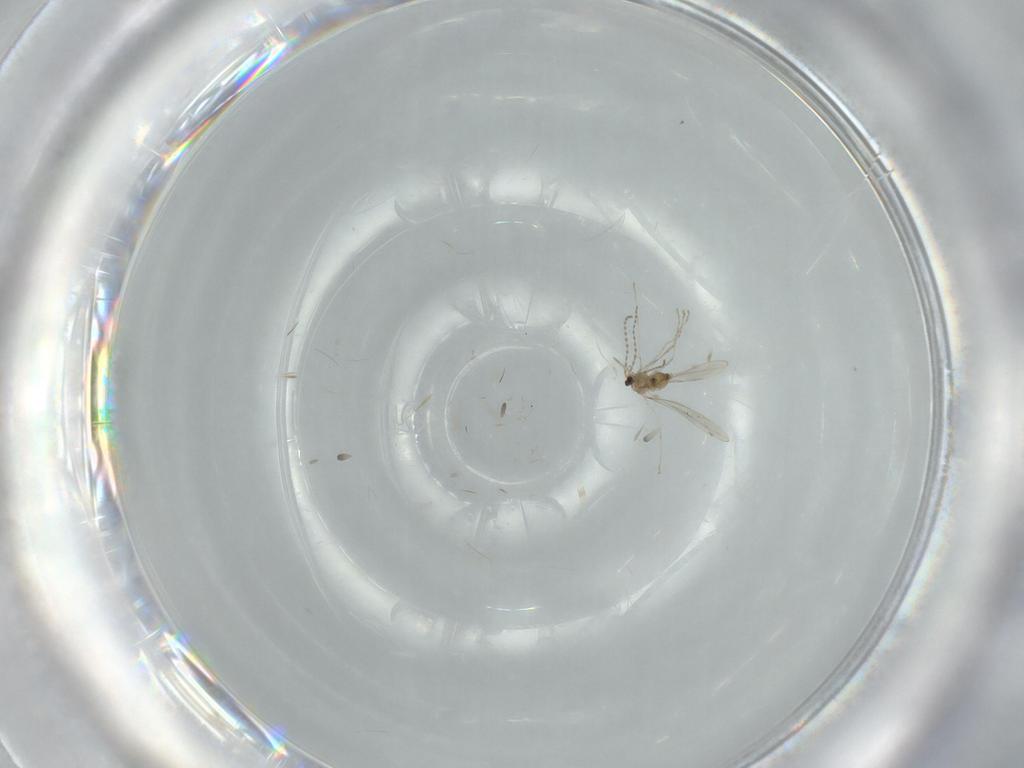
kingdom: Animalia
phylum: Arthropoda
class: Insecta
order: Diptera
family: Cecidomyiidae
